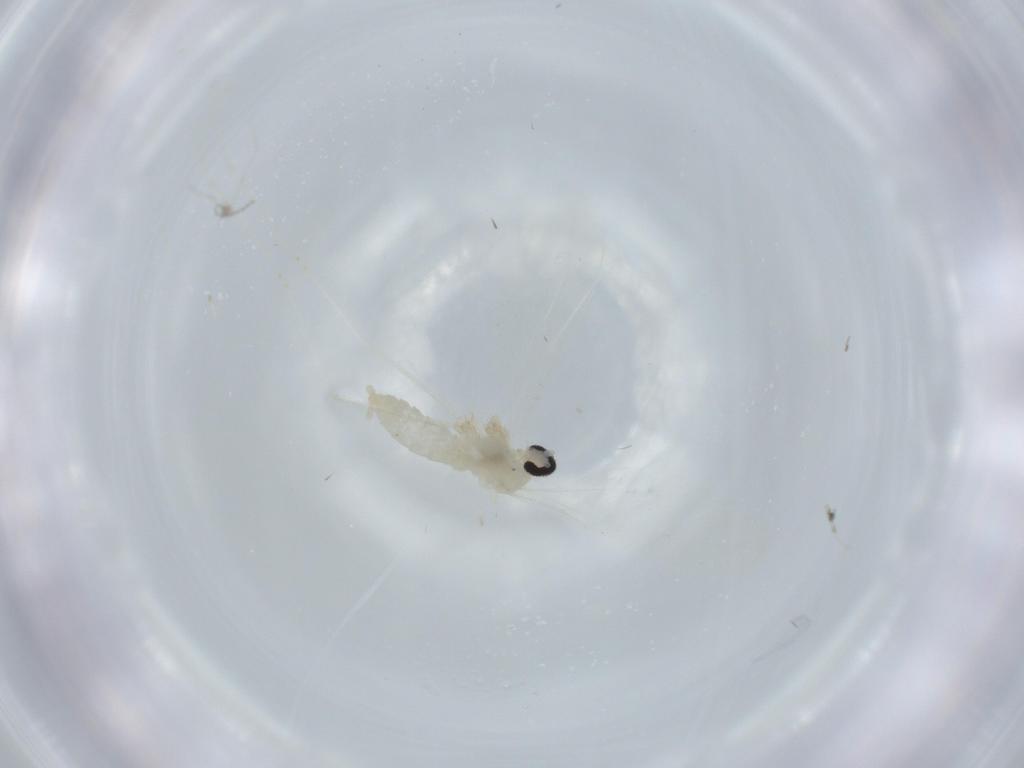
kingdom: Animalia
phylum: Arthropoda
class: Insecta
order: Diptera
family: Cecidomyiidae
